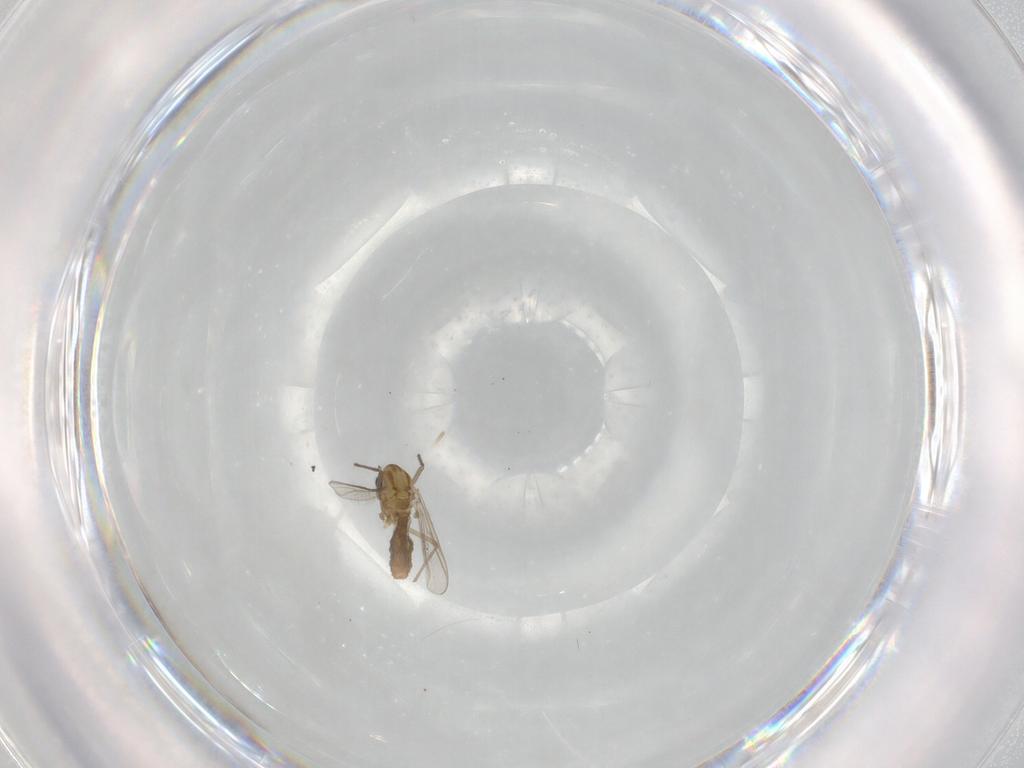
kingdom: Animalia
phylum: Arthropoda
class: Insecta
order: Diptera
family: Chironomidae
